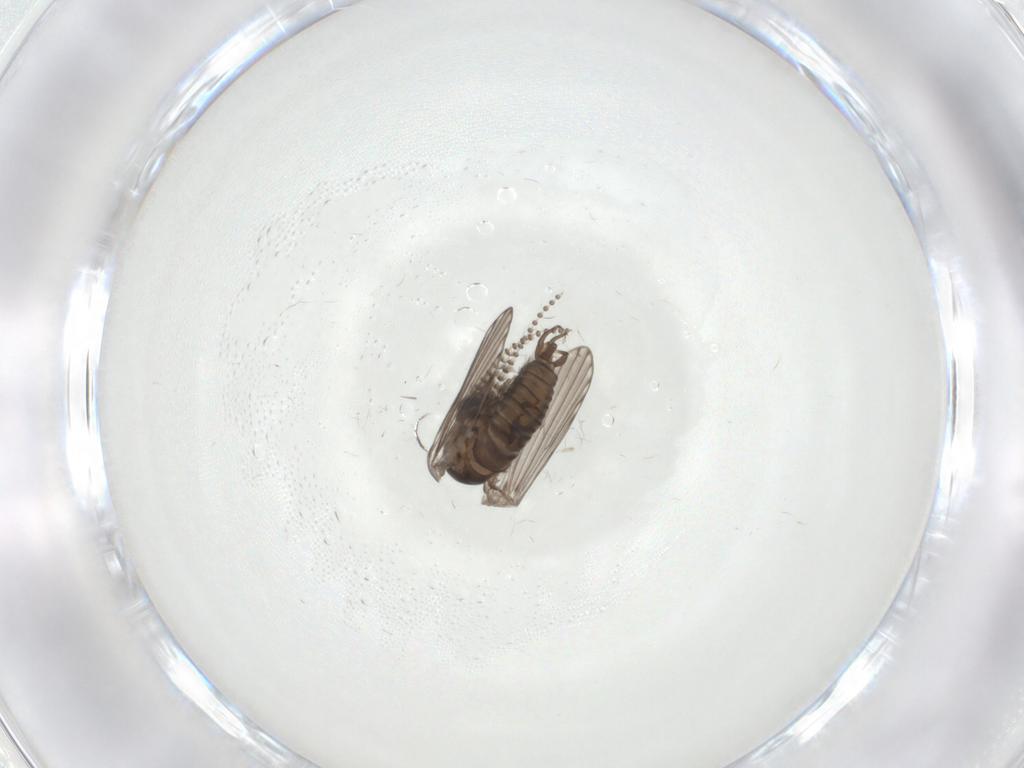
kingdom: Animalia
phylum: Arthropoda
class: Insecta
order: Diptera
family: Psychodidae
